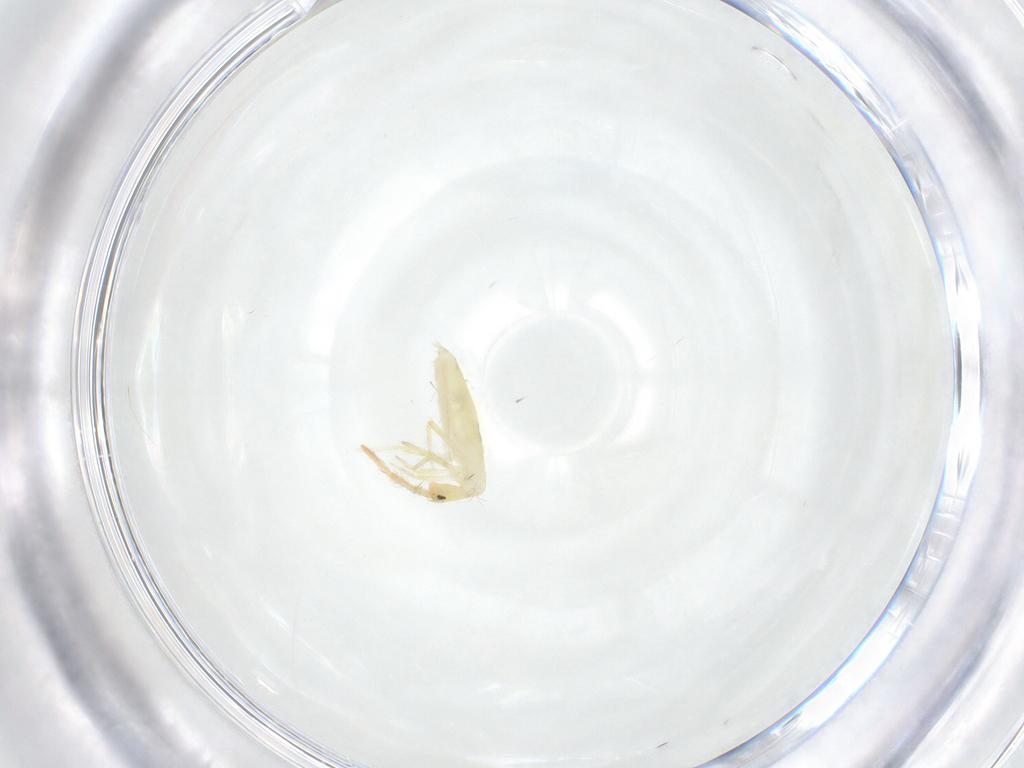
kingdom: Animalia
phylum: Arthropoda
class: Collembola
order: Entomobryomorpha
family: Entomobryidae
